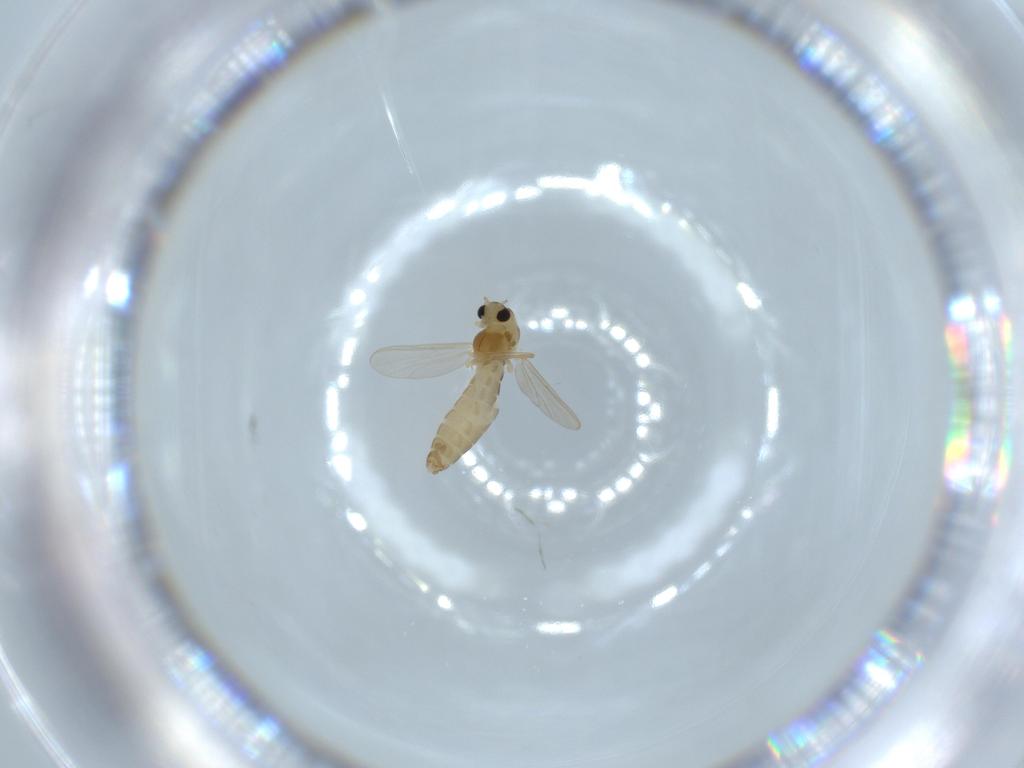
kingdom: Animalia
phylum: Arthropoda
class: Insecta
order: Diptera
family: Chironomidae
